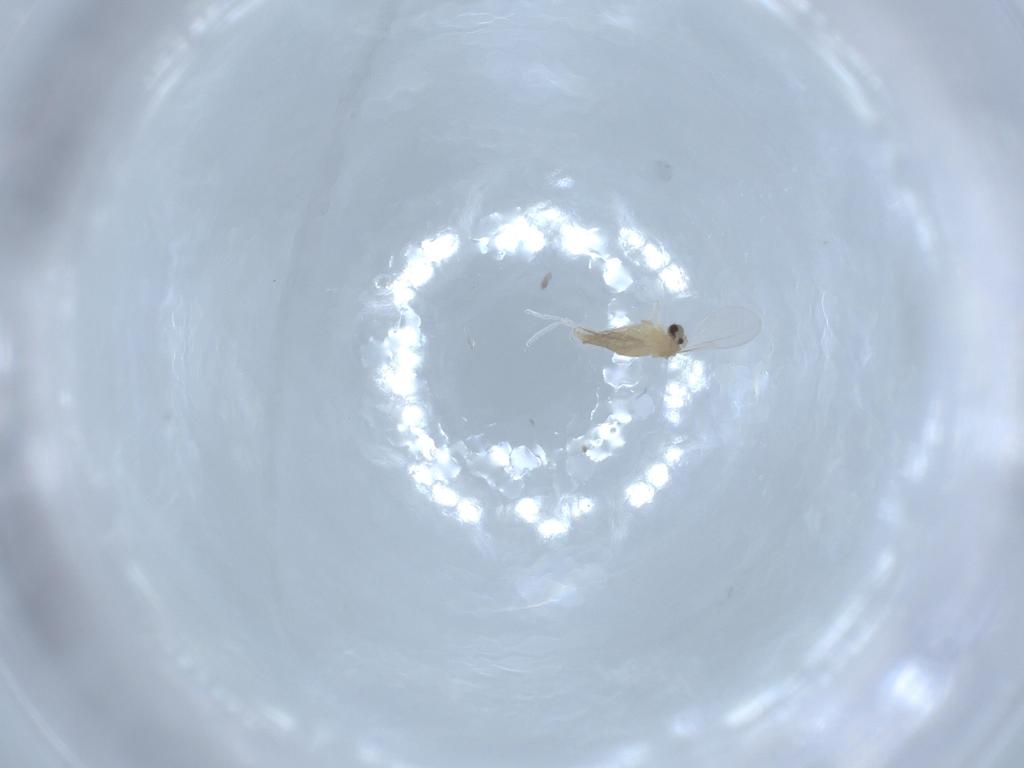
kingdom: Animalia
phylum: Arthropoda
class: Insecta
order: Diptera
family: Cecidomyiidae
